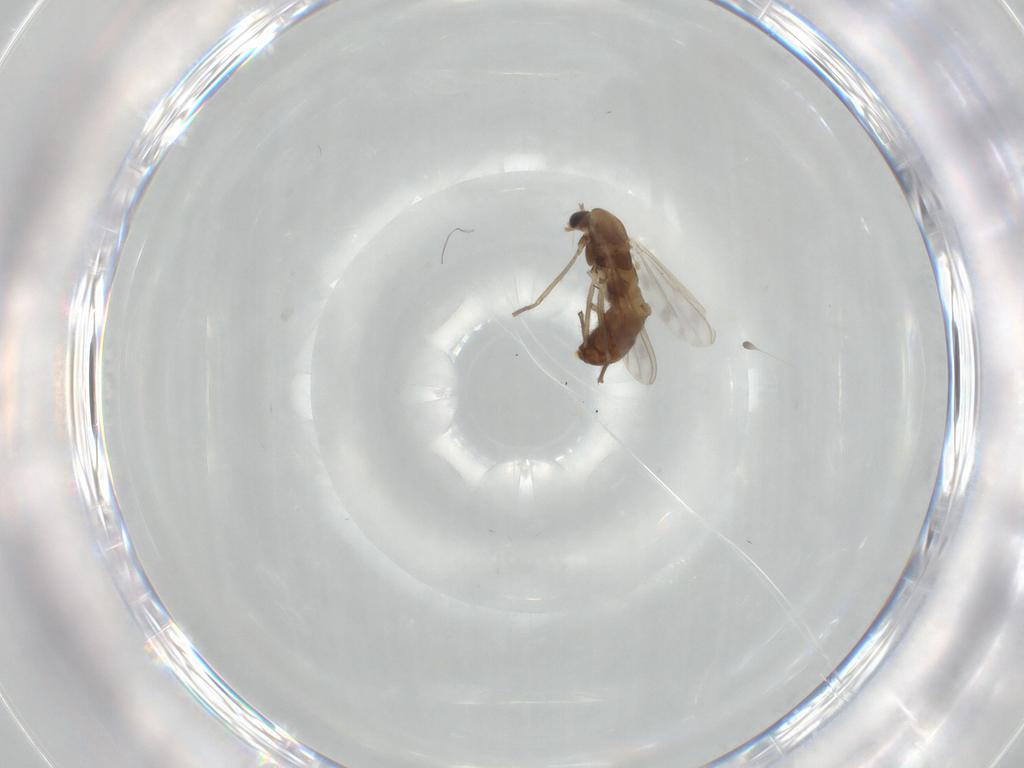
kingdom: Animalia
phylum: Arthropoda
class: Insecta
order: Diptera
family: Chironomidae
